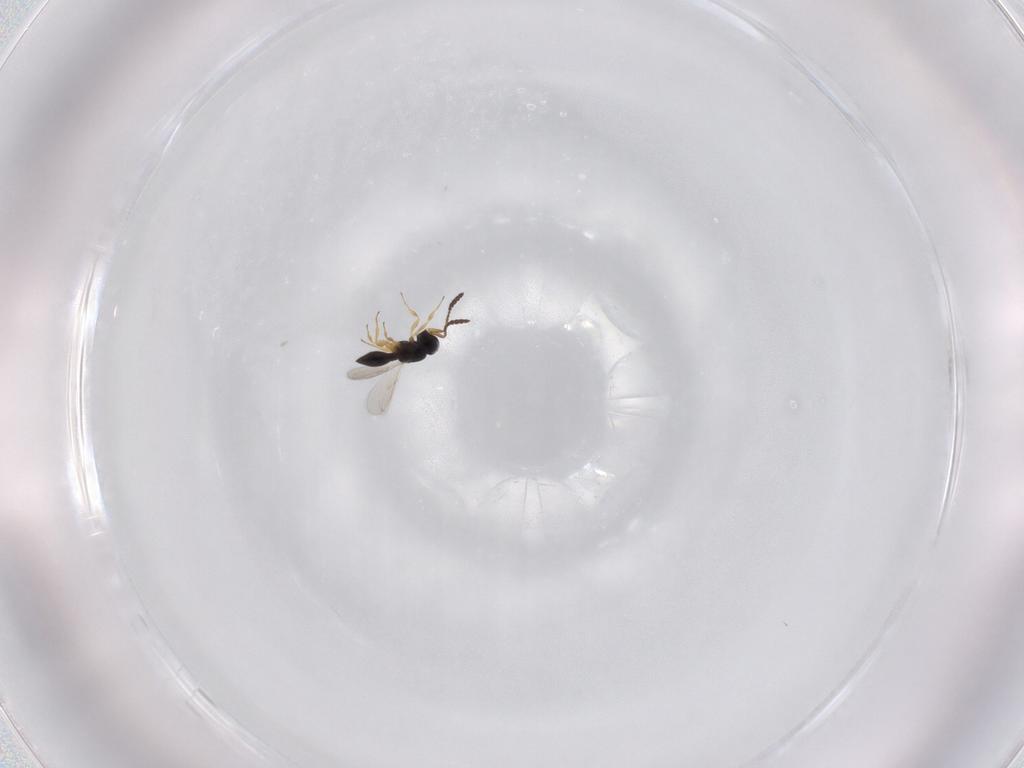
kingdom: Animalia
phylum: Arthropoda
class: Insecta
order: Hymenoptera
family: Scelionidae
